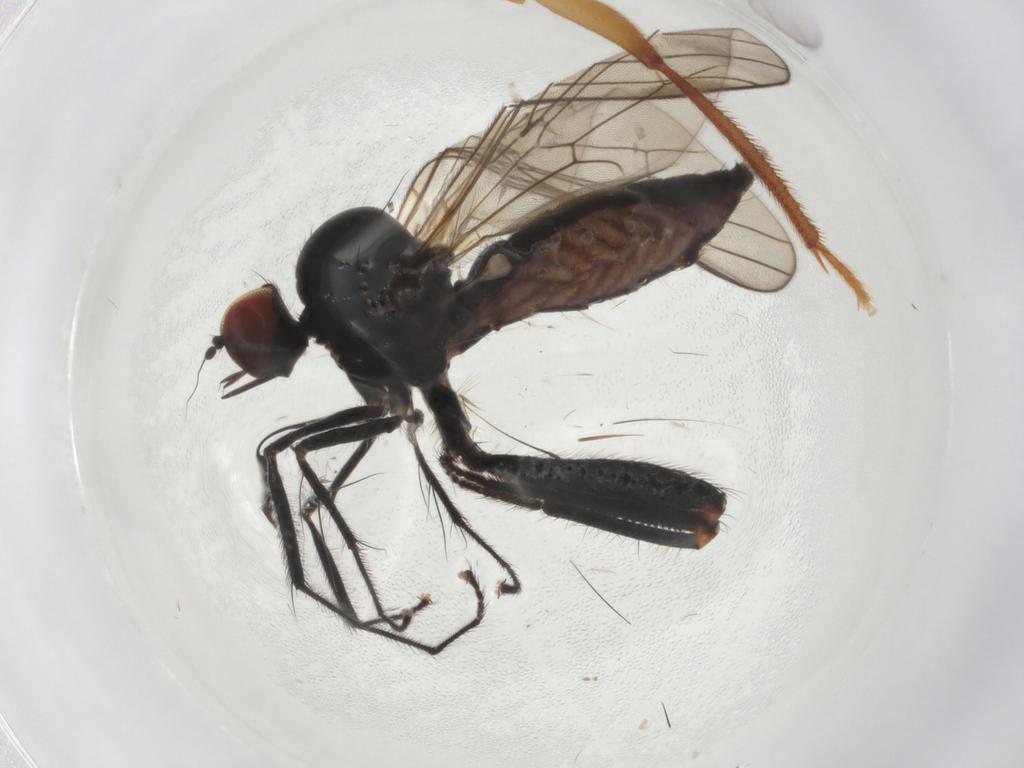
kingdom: Animalia
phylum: Arthropoda
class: Insecta
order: Diptera
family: Hybotidae
